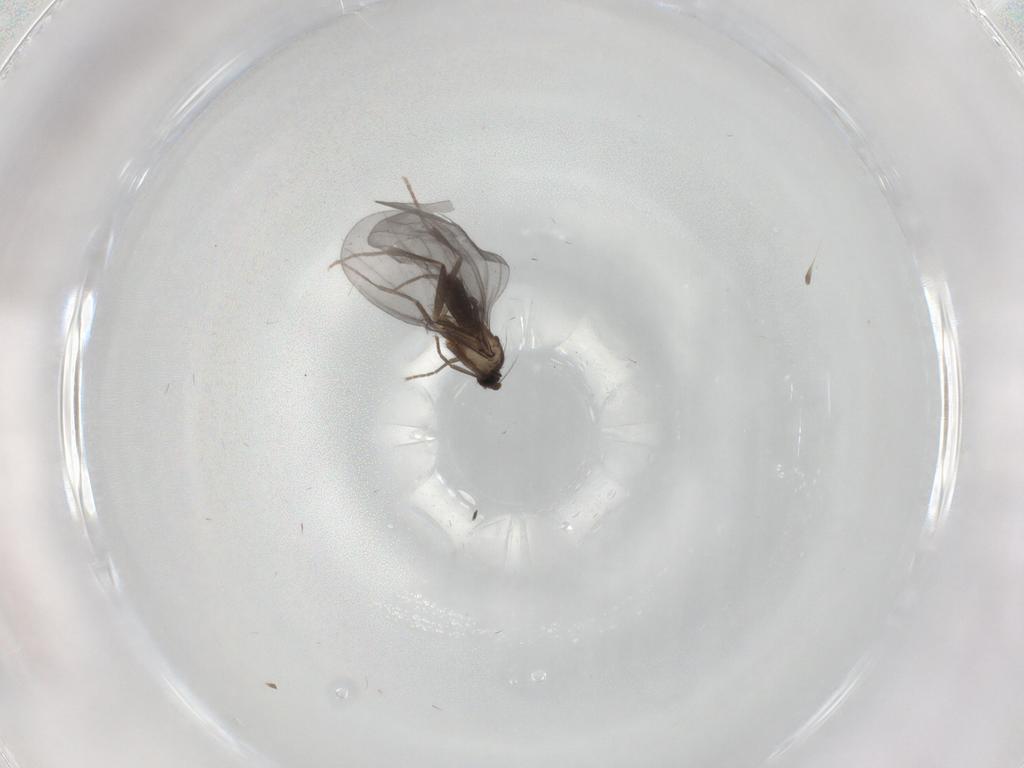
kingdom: Animalia
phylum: Arthropoda
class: Insecta
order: Diptera
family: Phoridae
